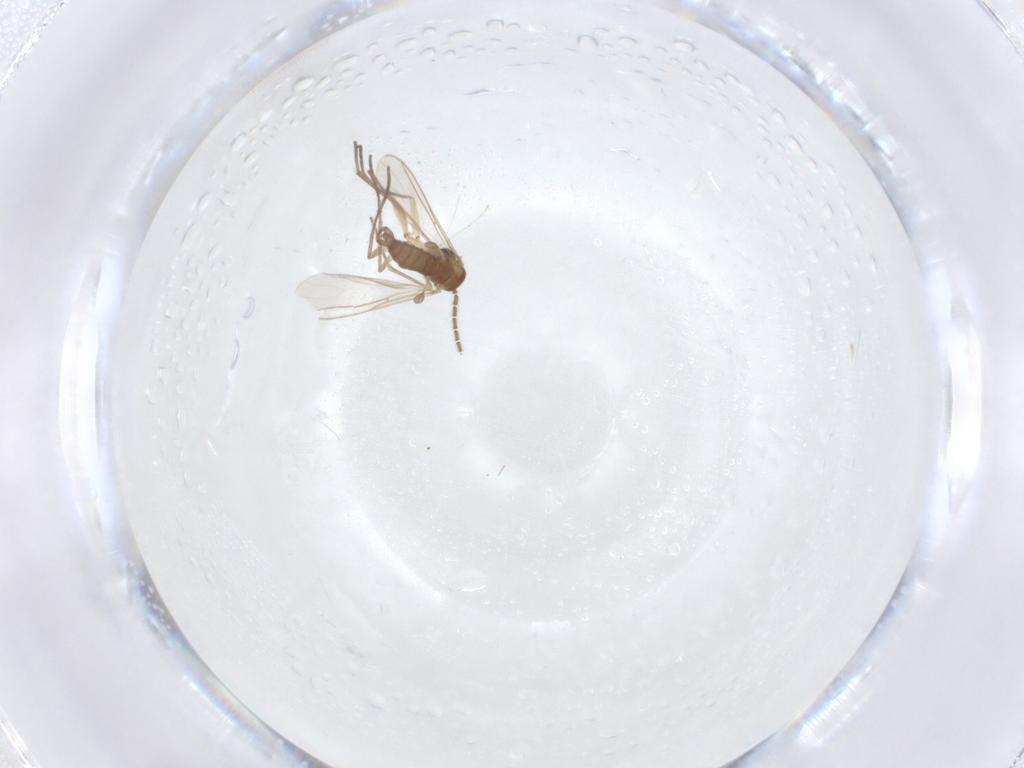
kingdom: Animalia
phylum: Arthropoda
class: Insecta
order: Diptera
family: Sciaridae
